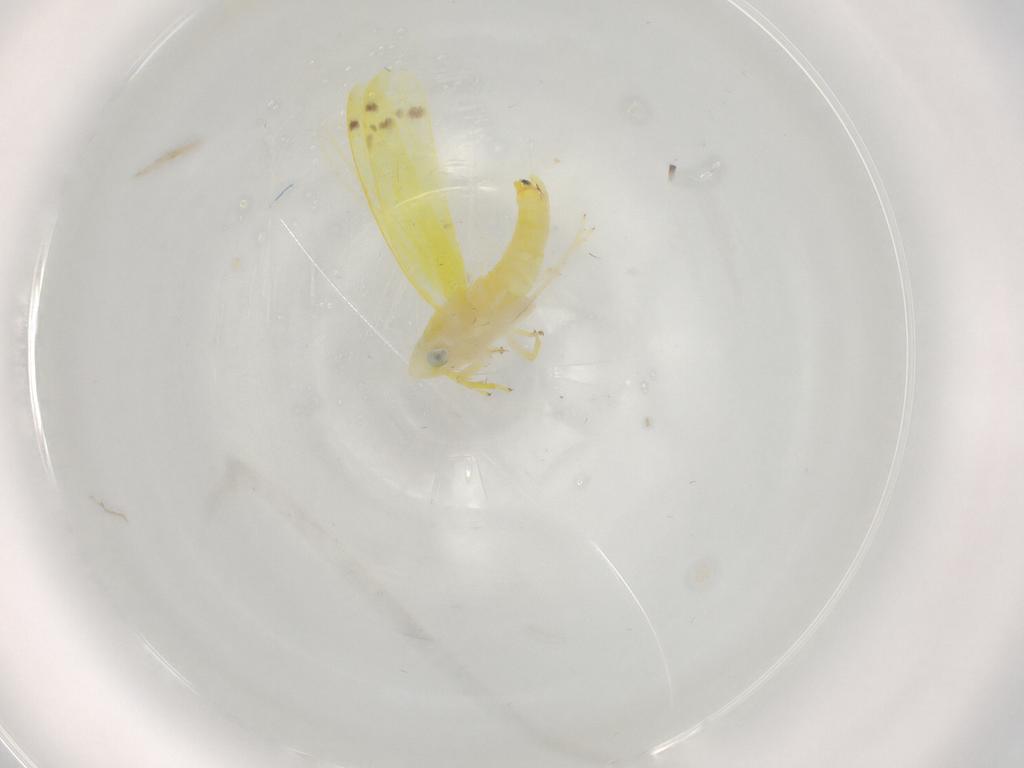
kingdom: Animalia
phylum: Arthropoda
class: Insecta
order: Hemiptera
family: Cicadellidae
